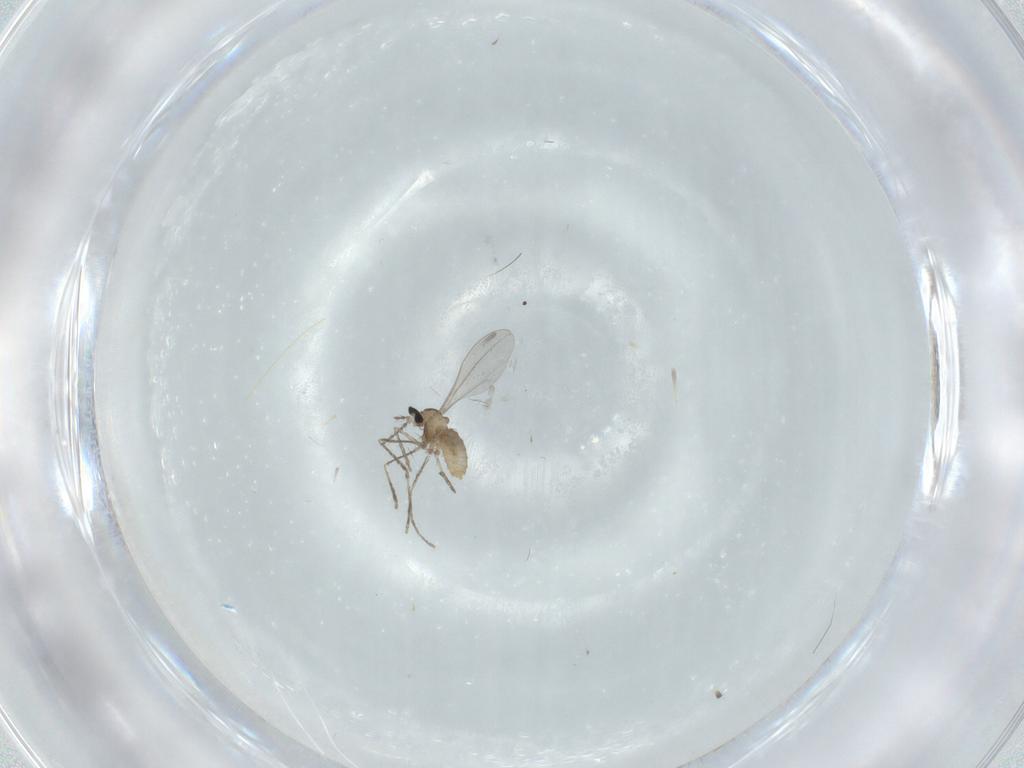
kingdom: Animalia
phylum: Arthropoda
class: Insecta
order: Diptera
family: Cecidomyiidae
